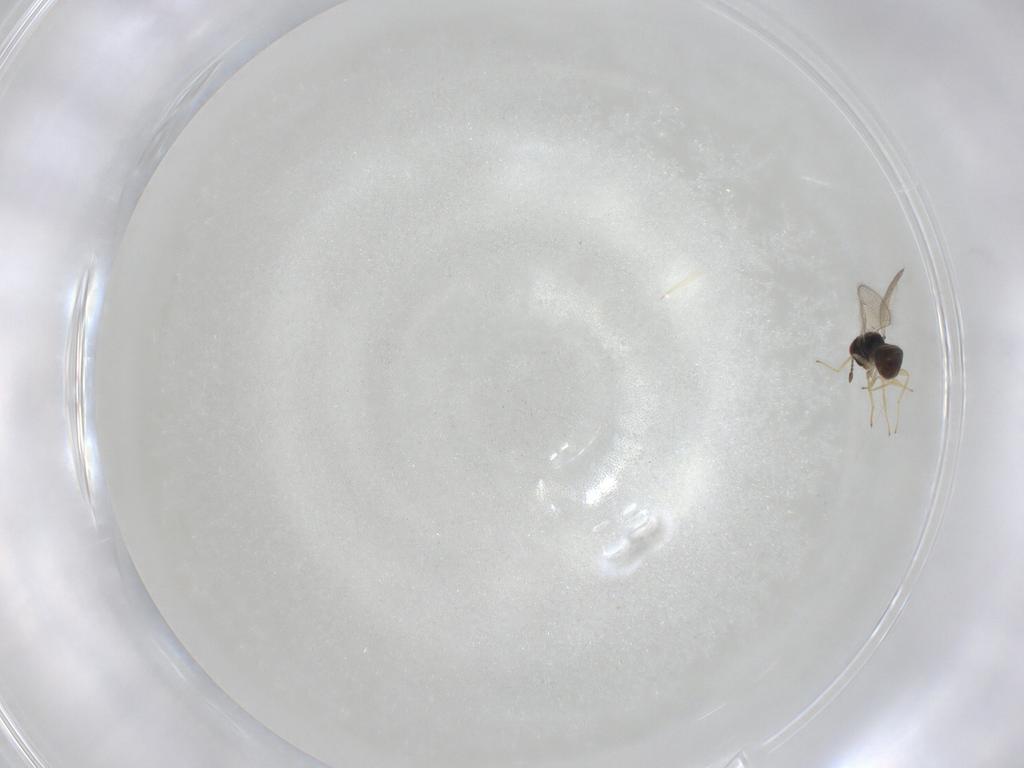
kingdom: Animalia
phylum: Arthropoda
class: Insecta
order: Hymenoptera
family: Tetracampidae
